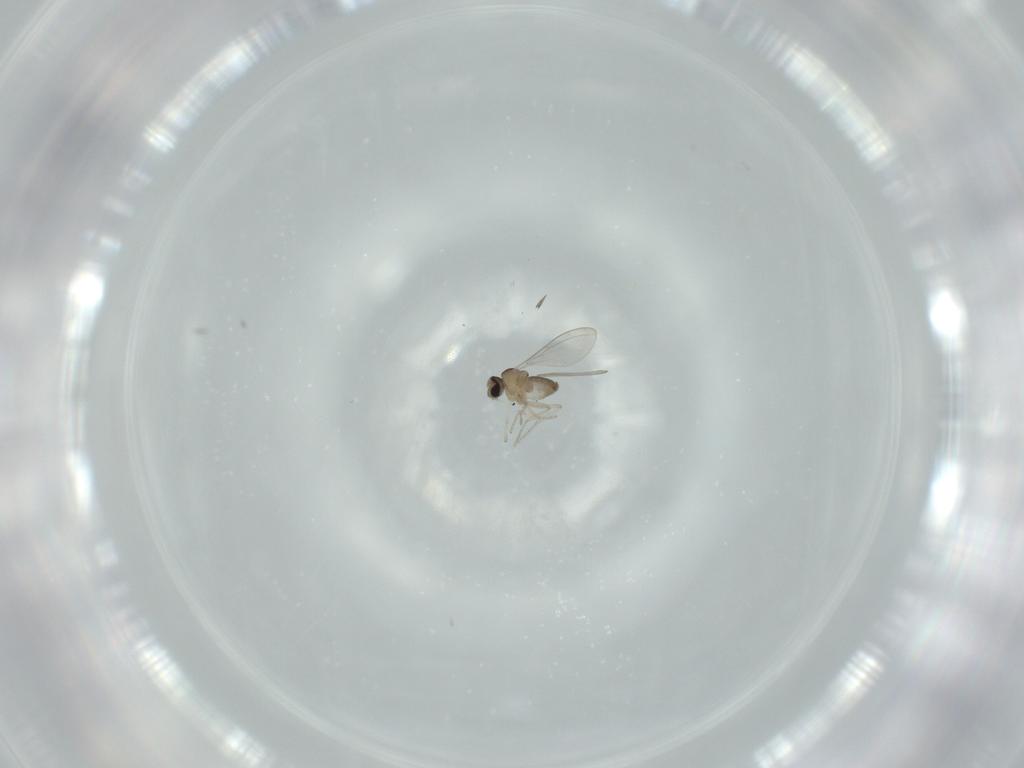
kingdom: Animalia
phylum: Arthropoda
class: Insecta
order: Diptera
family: Cecidomyiidae
